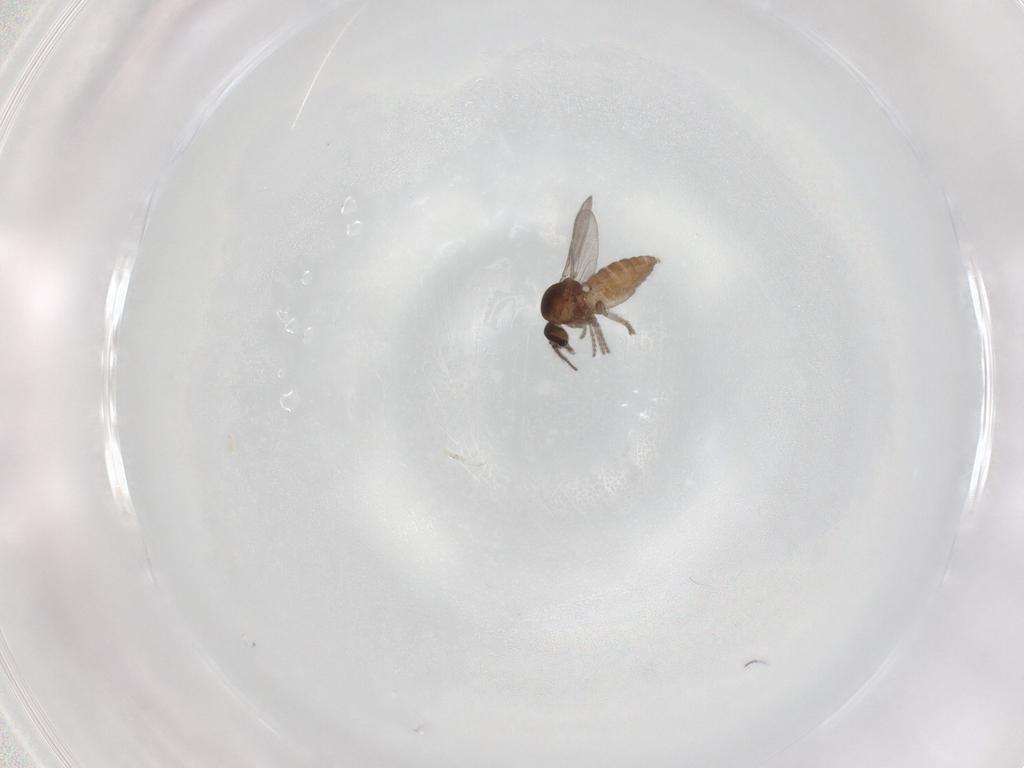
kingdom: Animalia
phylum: Arthropoda
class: Insecta
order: Diptera
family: Ceratopogonidae
